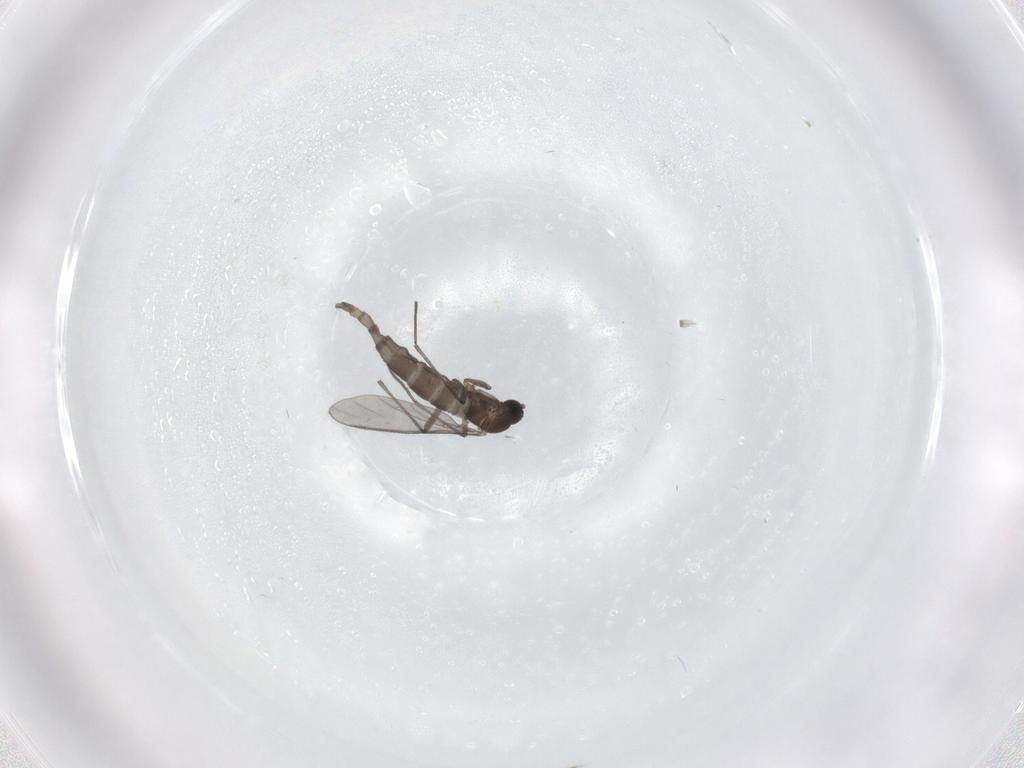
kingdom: Animalia
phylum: Arthropoda
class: Insecta
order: Diptera
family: Sciaridae
